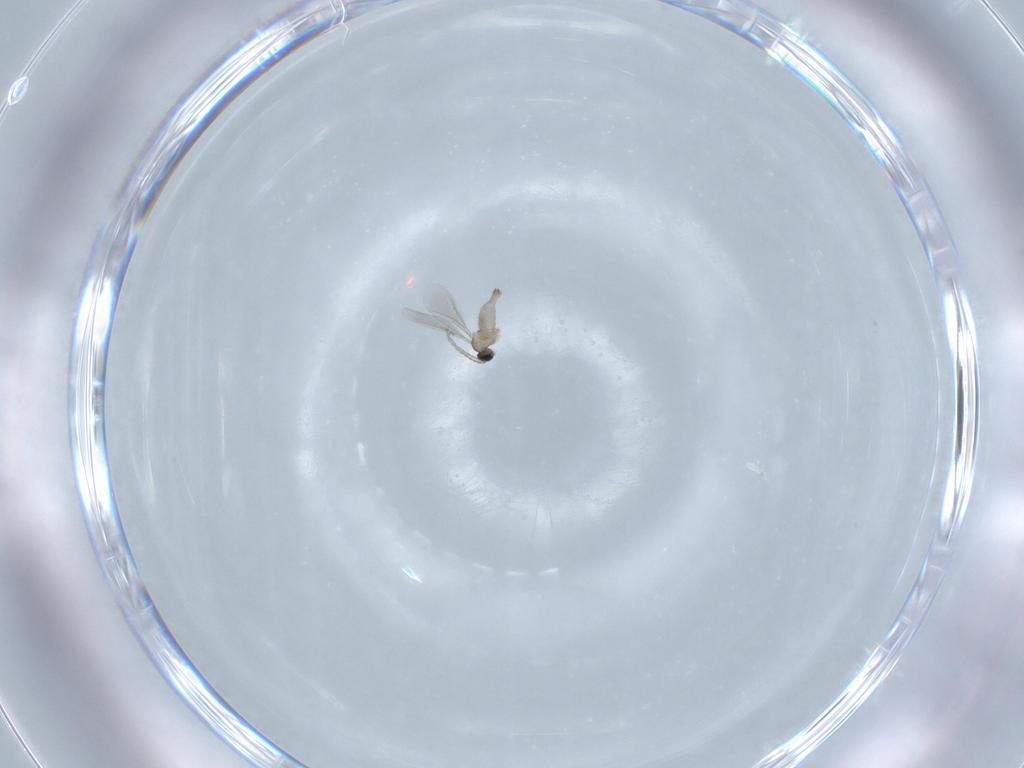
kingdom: Animalia
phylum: Arthropoda
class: Insecta
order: Diptera
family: Cecidomyiidae
